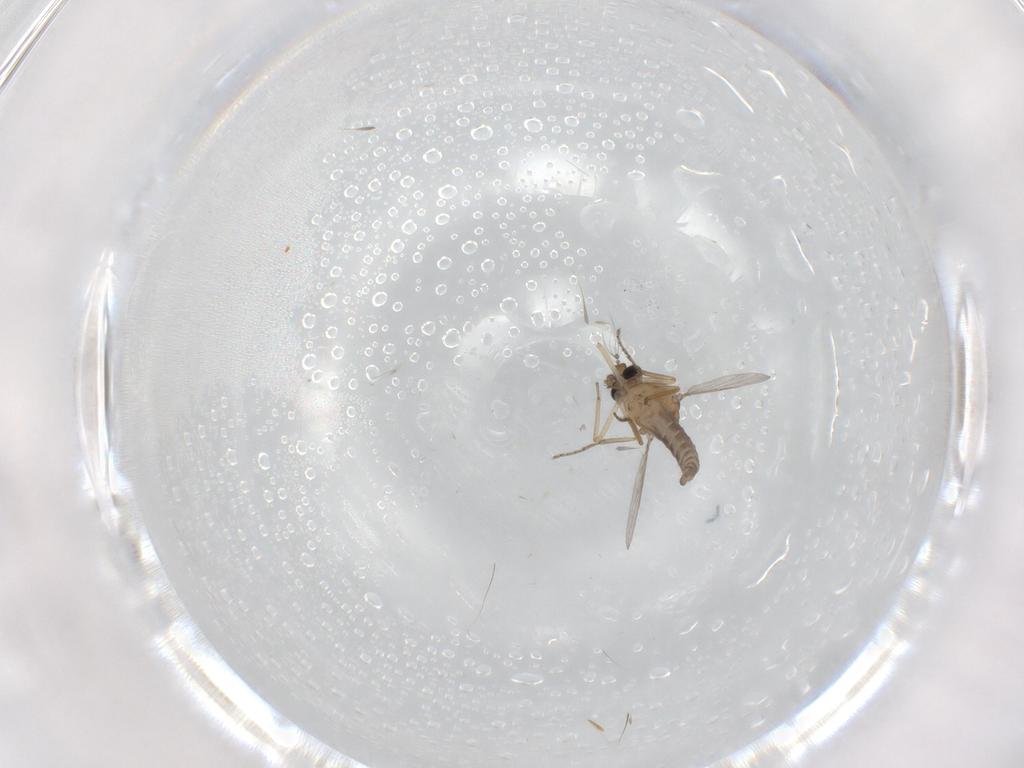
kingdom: Animalia
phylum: Arthropoda
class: Insecta
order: Diptera
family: Ceratopogonidae
